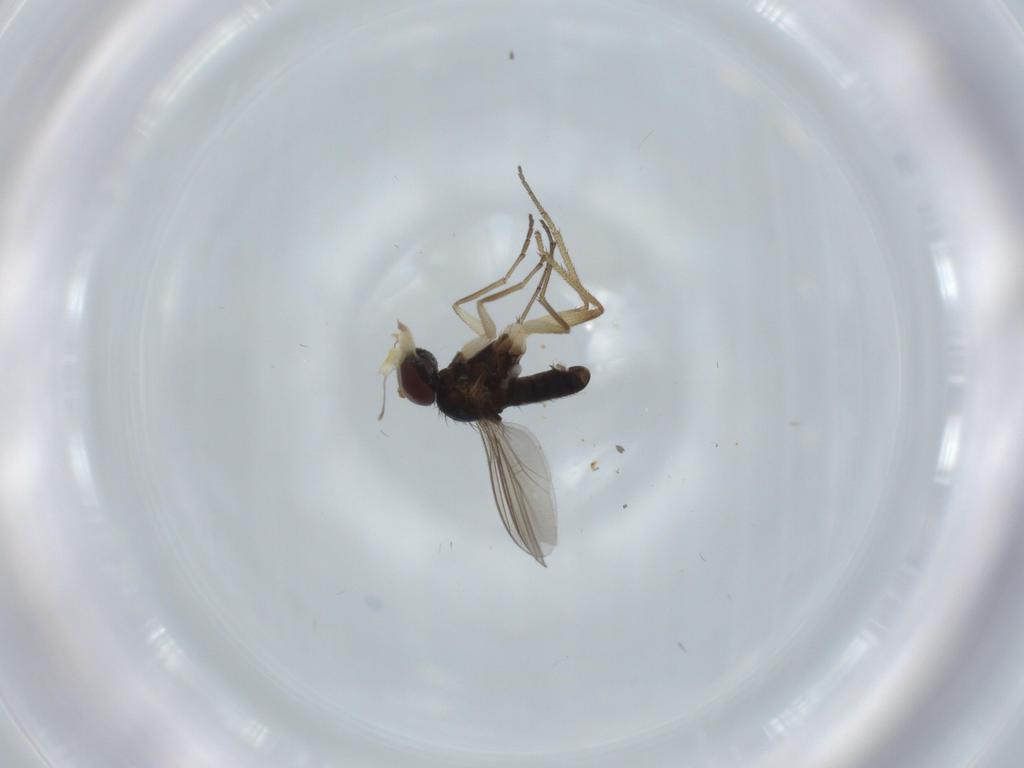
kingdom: Animalia
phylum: Arthropoda
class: Insecta
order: Diptera
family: Dolichopodidae
